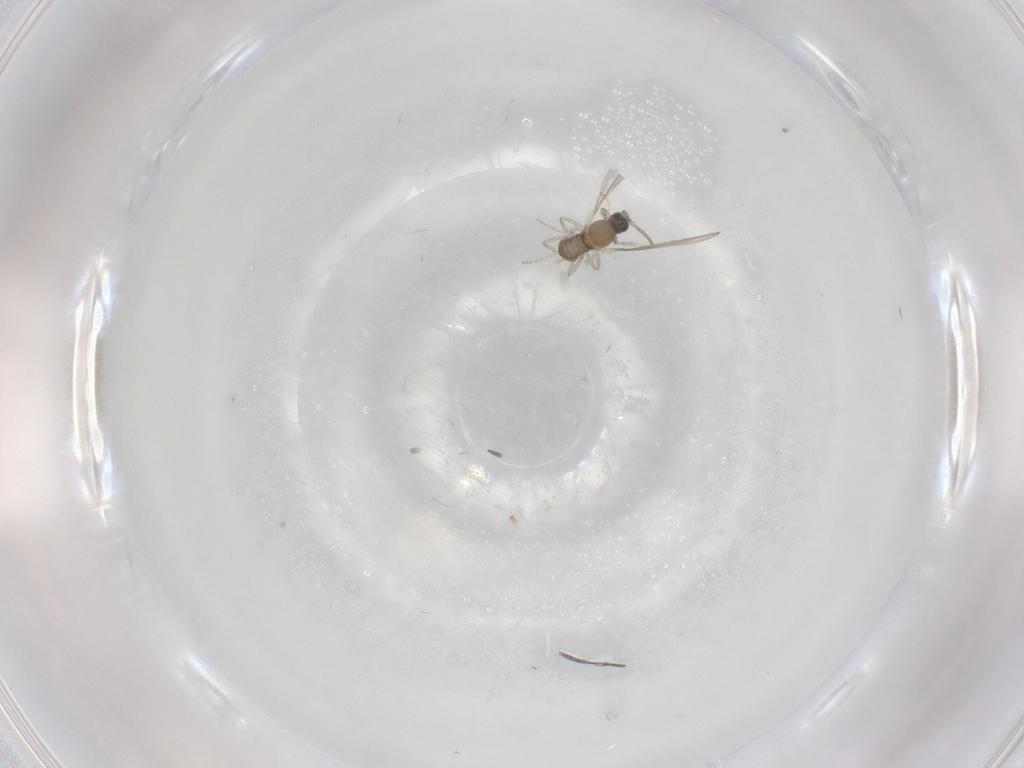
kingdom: Animalia
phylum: Arthropoda
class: Insecta
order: Diptera
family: Cecidomyiidae
